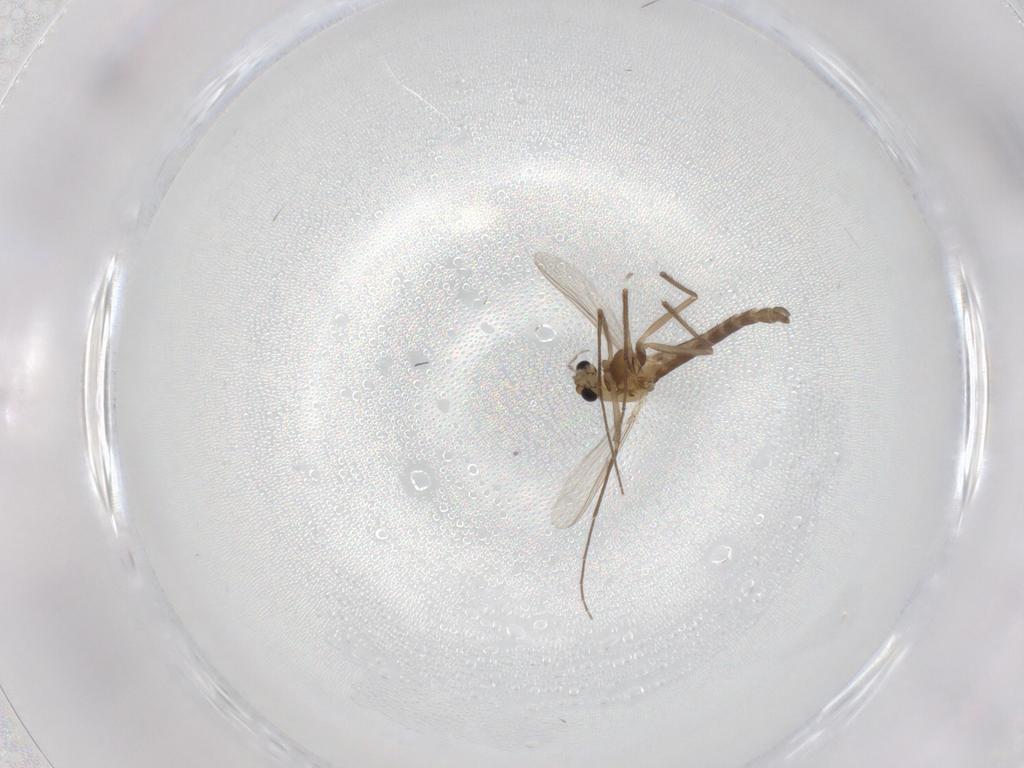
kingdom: Animalia
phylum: Arthropoda
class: Insecta
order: Diptera
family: Chironomidae
